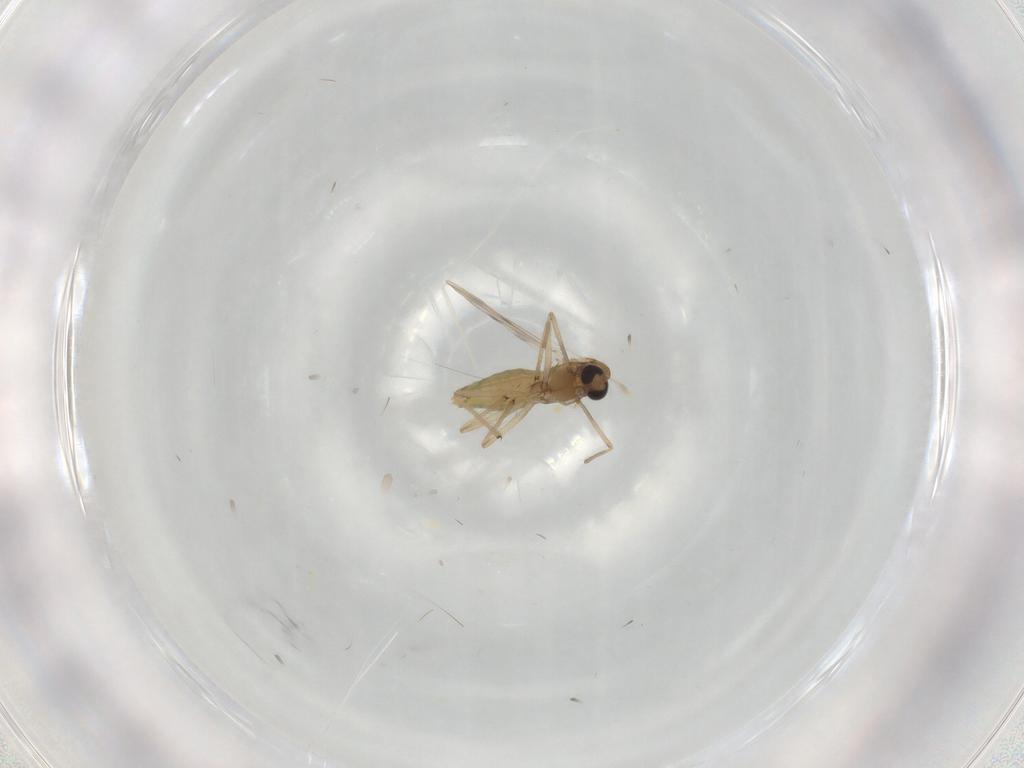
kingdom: Animalia
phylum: Arthropoda
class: Insecta
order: Diptera
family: Chironomidae
